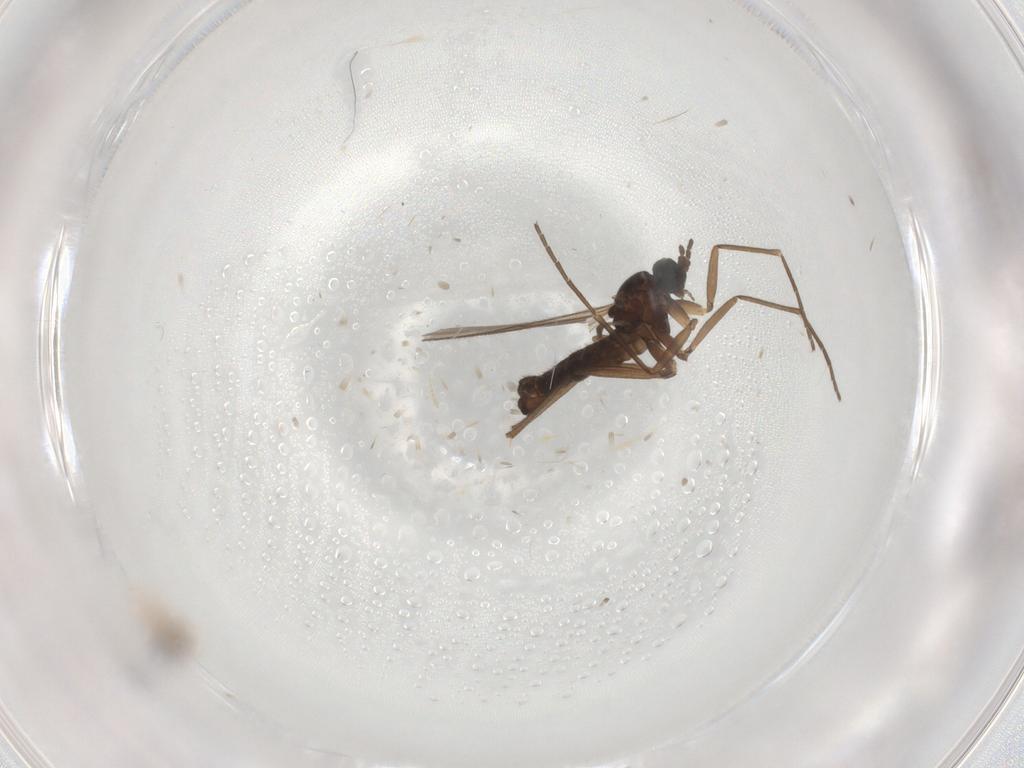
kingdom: Animalia
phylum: Arthropoda
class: Insecta
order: Diptera
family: Cecidomyiidae
